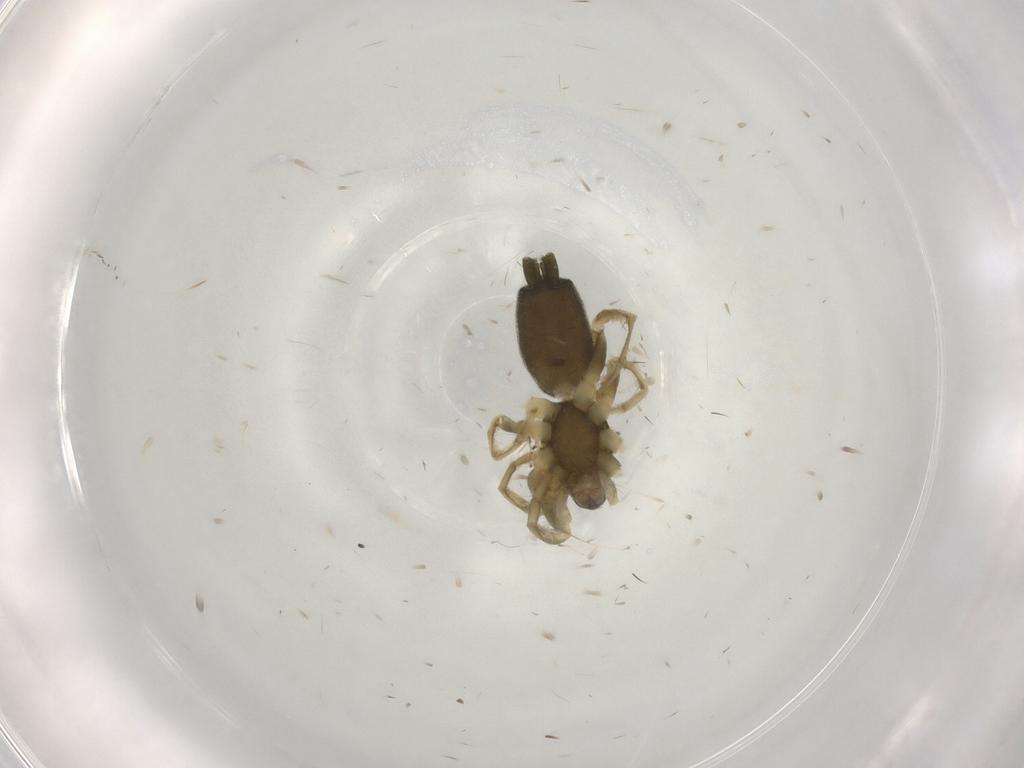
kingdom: Animalia
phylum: Arthropoda
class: Arachnida
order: Araneae
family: Gnaphosidae
